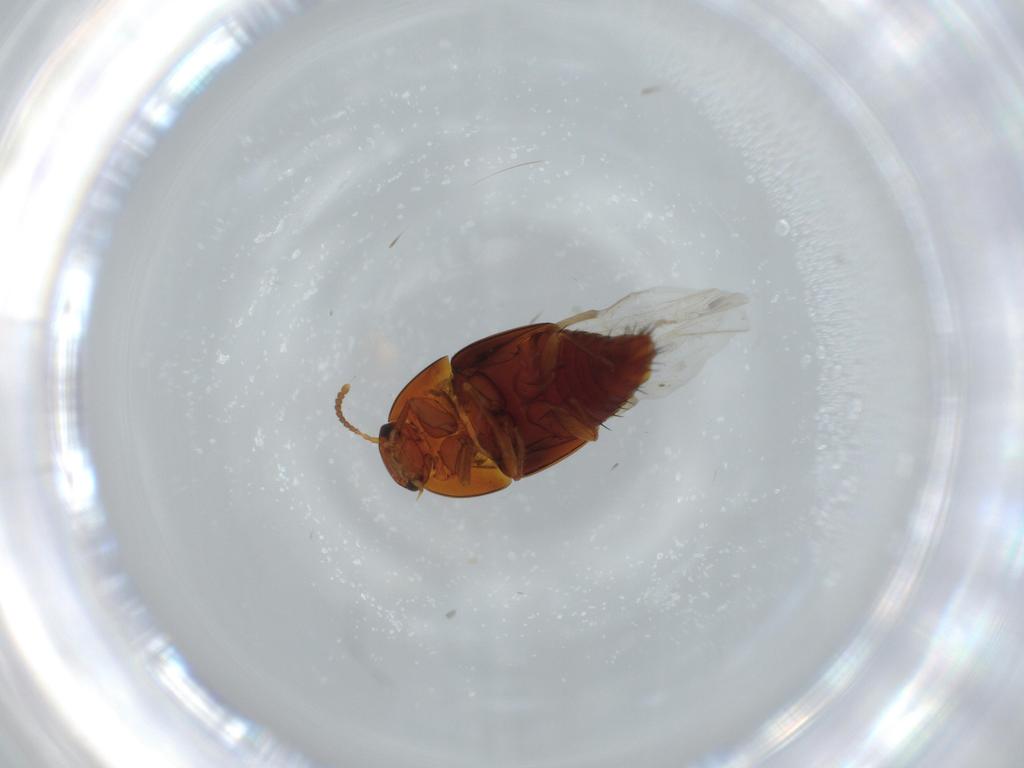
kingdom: Animalia
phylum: Arthropoda
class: Insecta
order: Coleoptera
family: Staphylinidae
